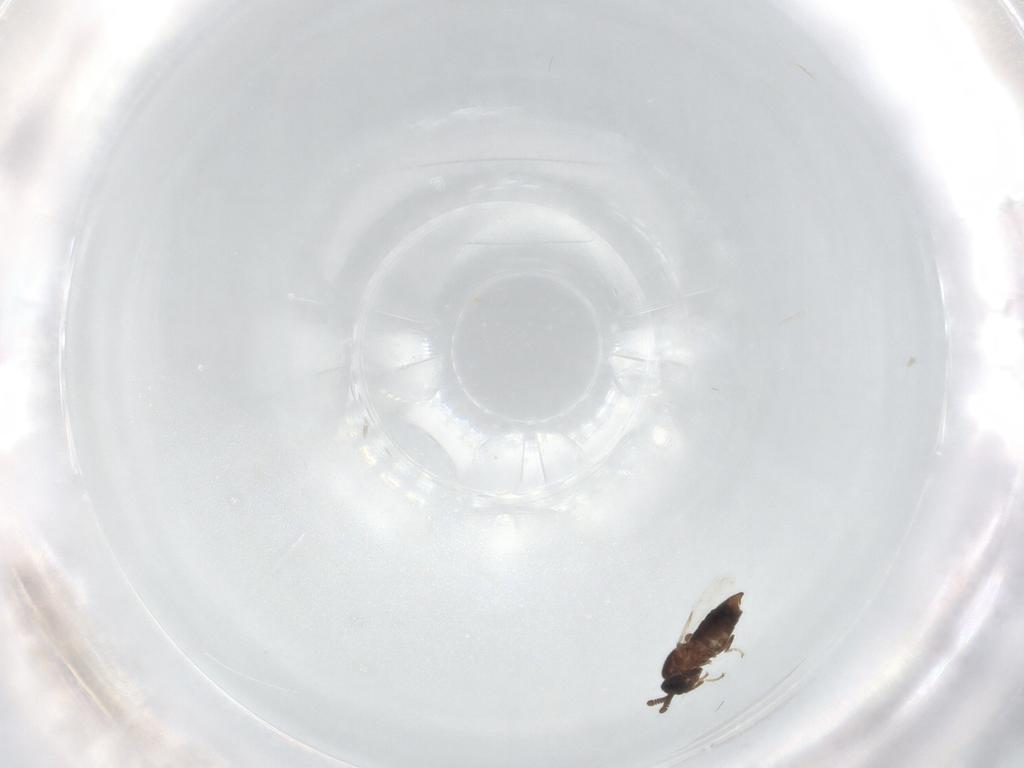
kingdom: Animalia
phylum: Arthropoda
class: Insecta
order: Diptera
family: Scatopsidae
